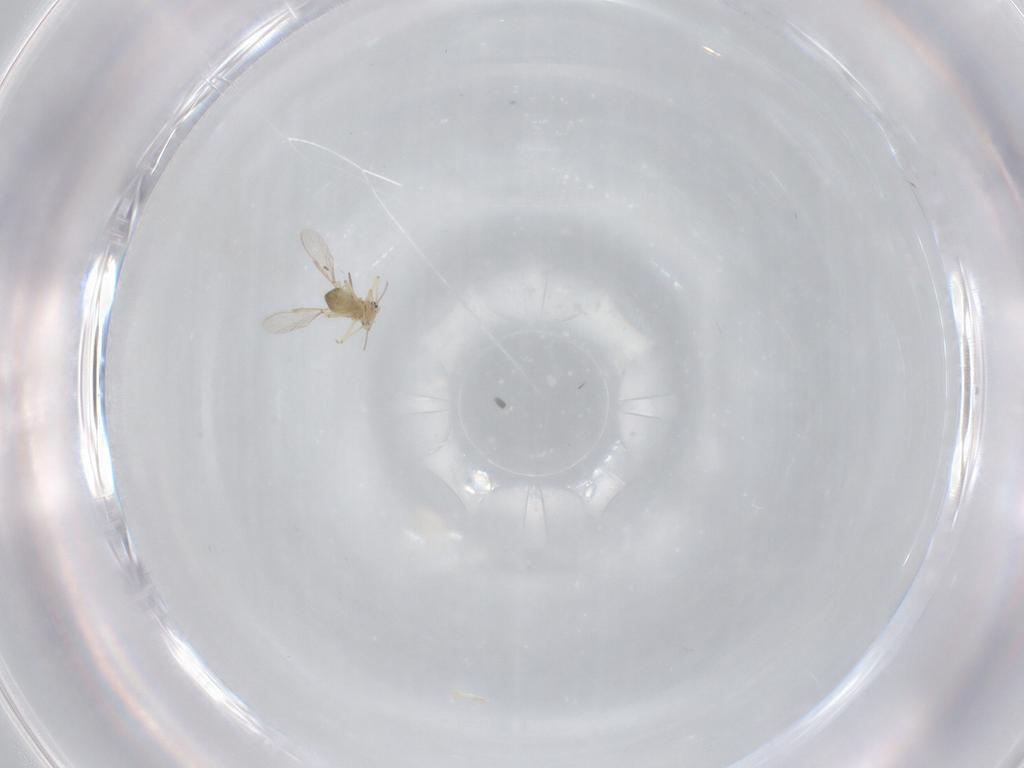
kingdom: Animalia
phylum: Arthropoda
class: Insecta
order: Diptera
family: Chironomidae
